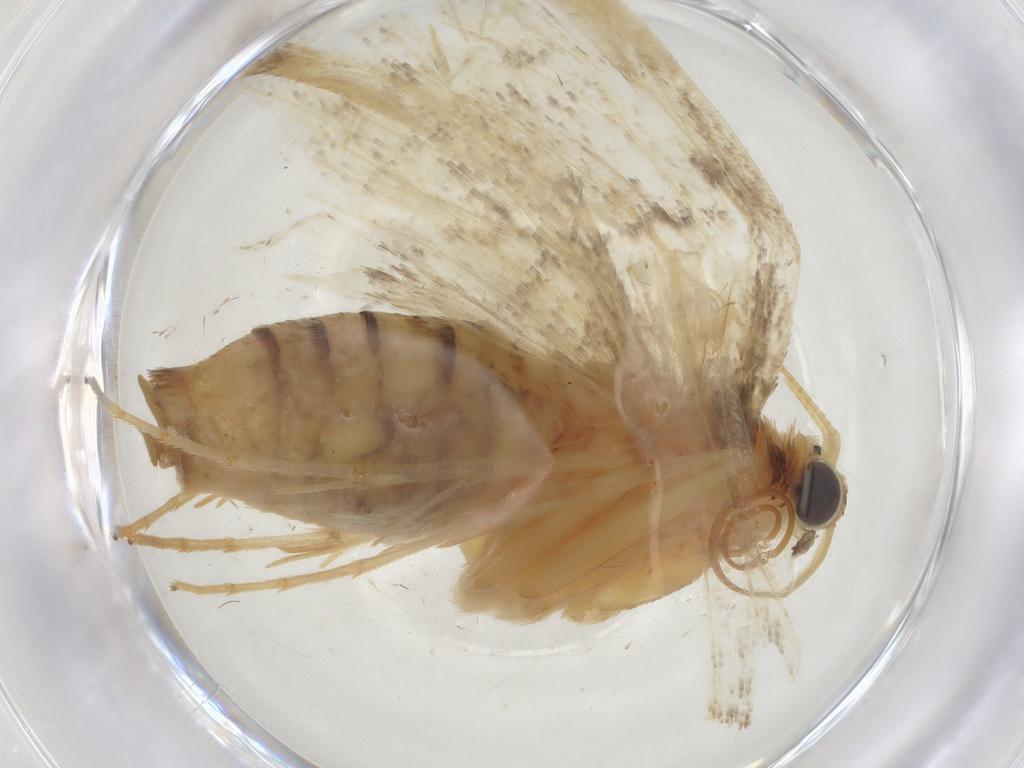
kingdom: Animalia
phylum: Arthropoda
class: Insecta
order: Lepidoptera
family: Crambidae
